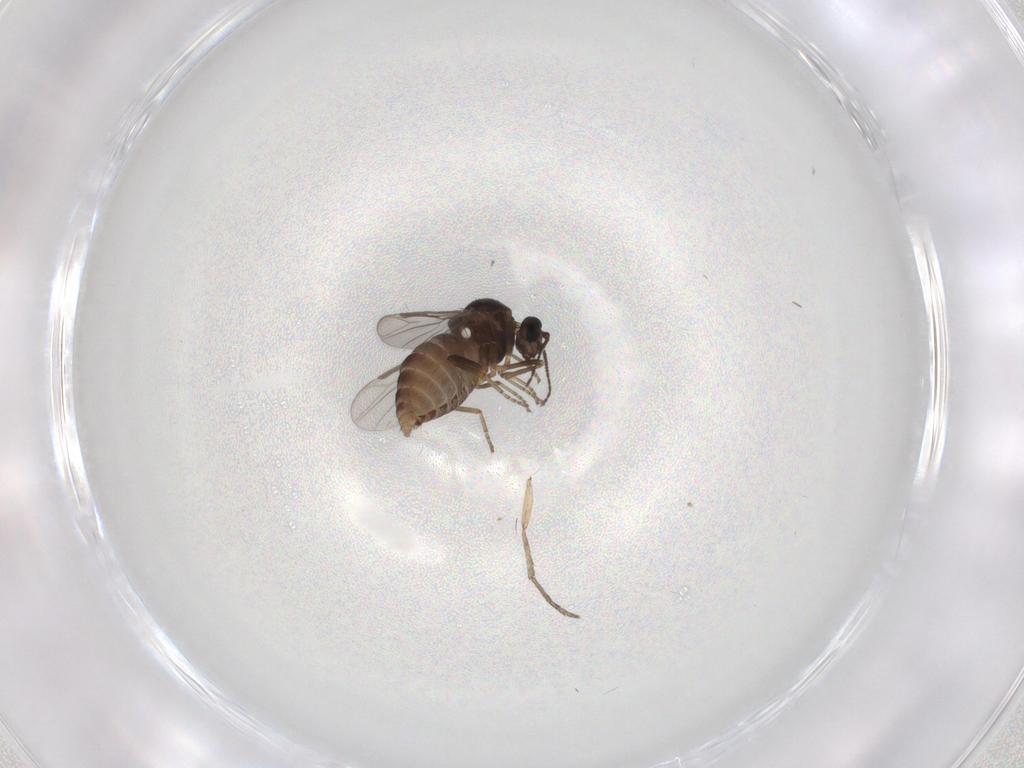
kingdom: Animalia
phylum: Arthropoda
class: Insecta
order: Diptera
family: Ceratopogonidae
